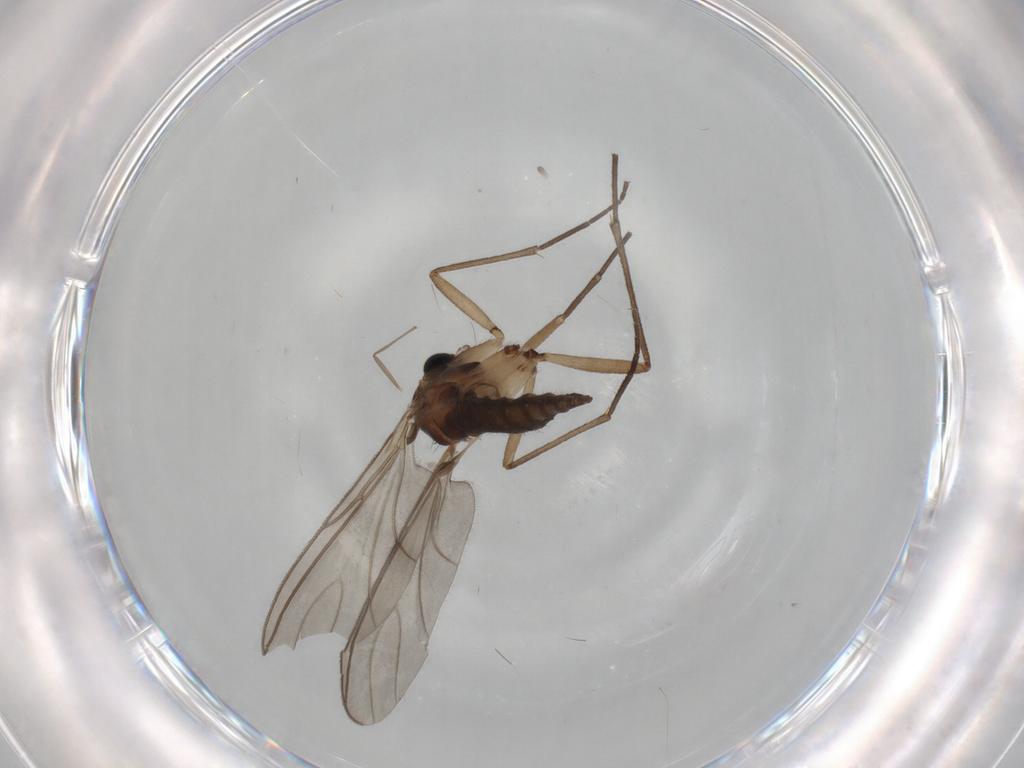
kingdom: Animalia
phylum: Arthropoda
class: Insecta
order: Diptera
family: Sciaridae
